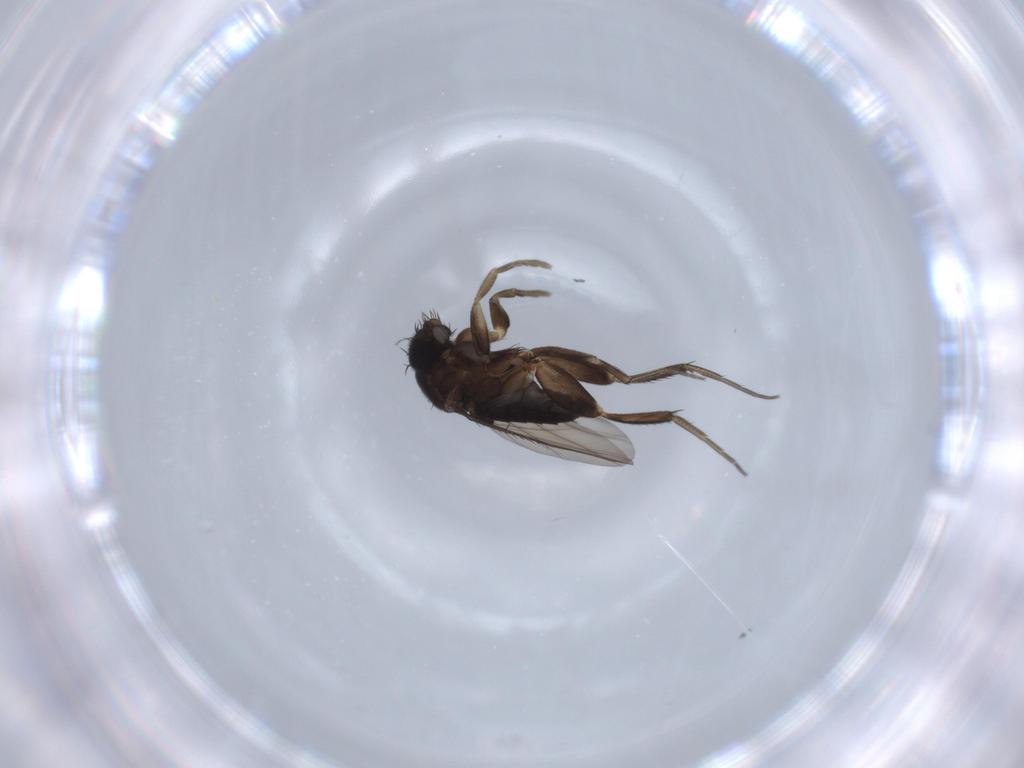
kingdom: Animalia
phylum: Arthropoda
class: Insecta
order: Diptera
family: Phoridae
